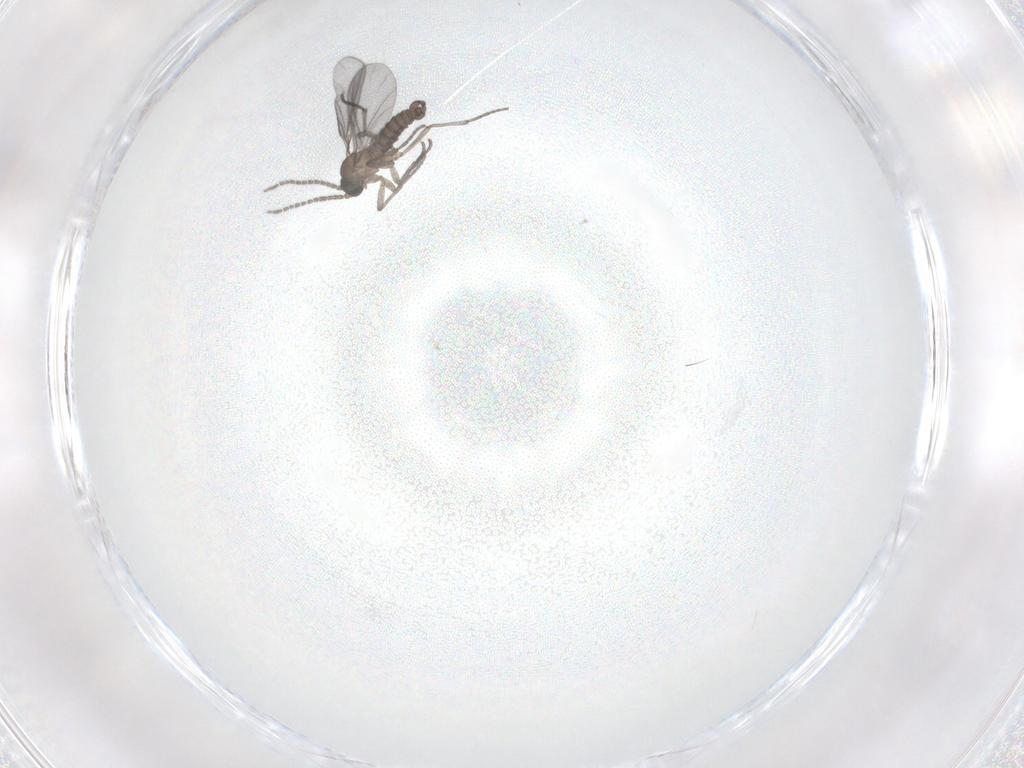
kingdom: Animalia
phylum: Arthropoda
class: Insecta
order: Diptera
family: Sciaridae
